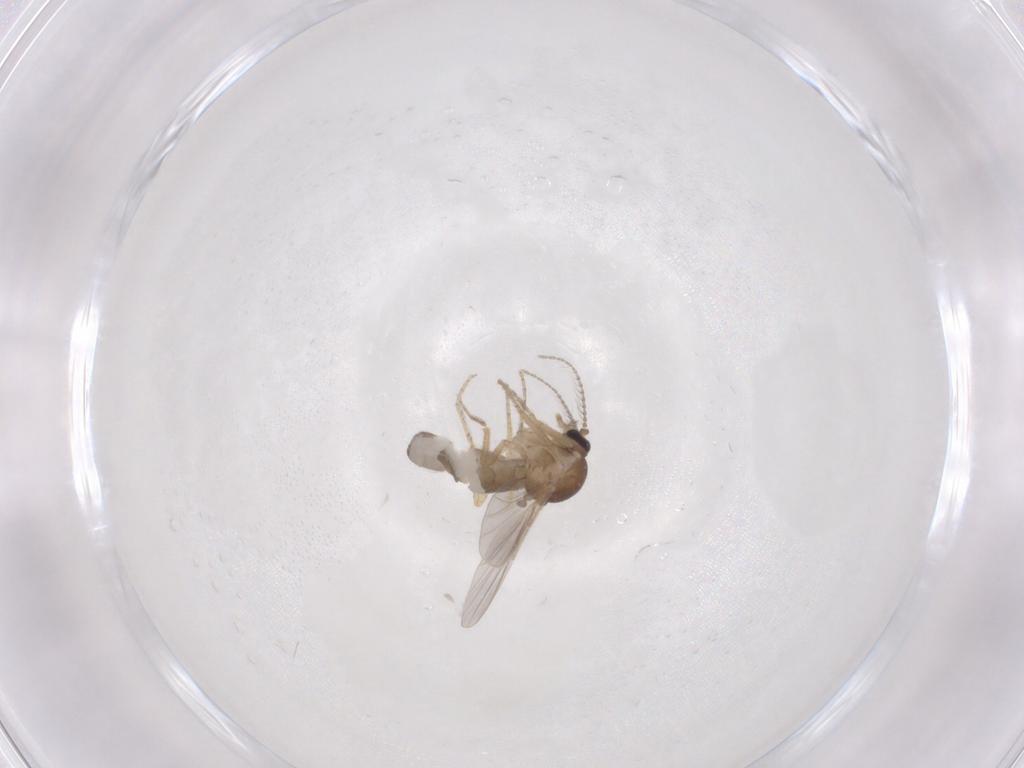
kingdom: Animalia
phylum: Arthropoda
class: Insecta
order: Diptera
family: Ceratopogonidae
